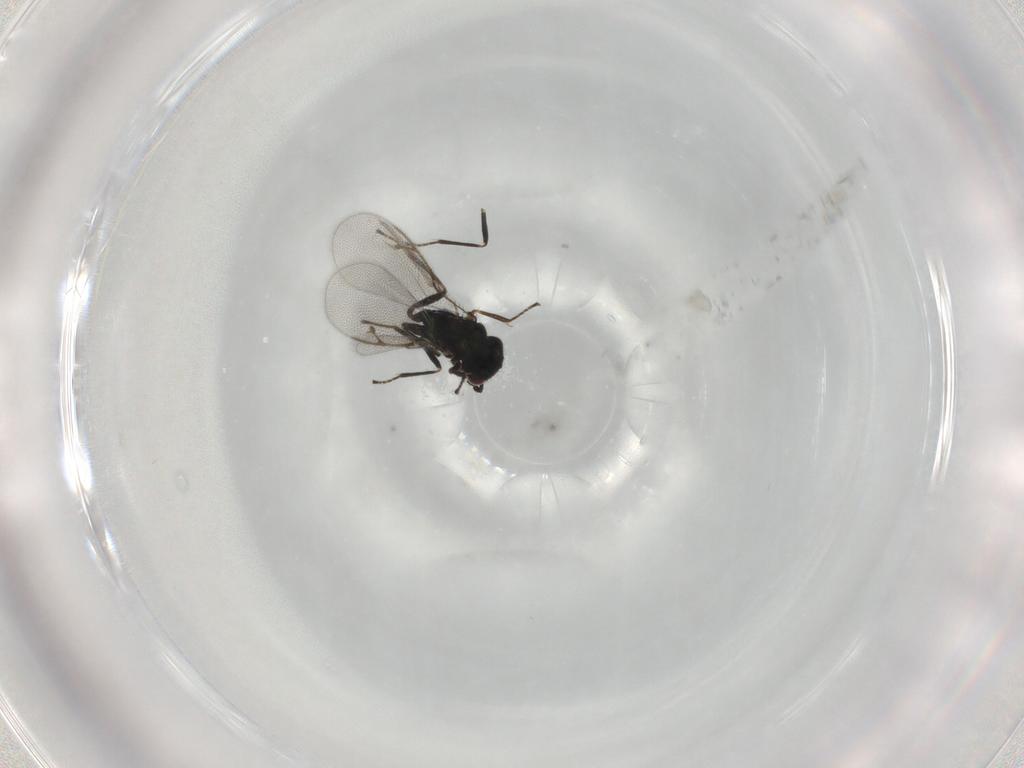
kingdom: Animalia
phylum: Arthropoda
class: Insecta
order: Hymenoptera
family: Pirenidae
